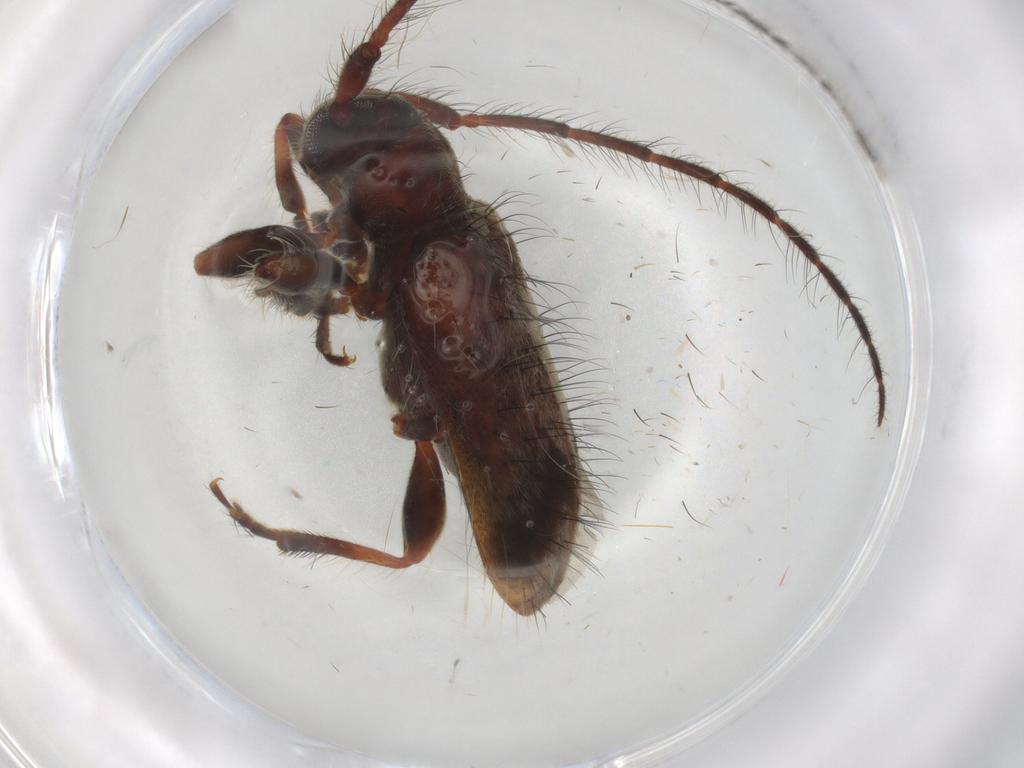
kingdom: Animalia
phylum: Arthropoda
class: Insecta
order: Coleoptera
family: Cerambycidae
